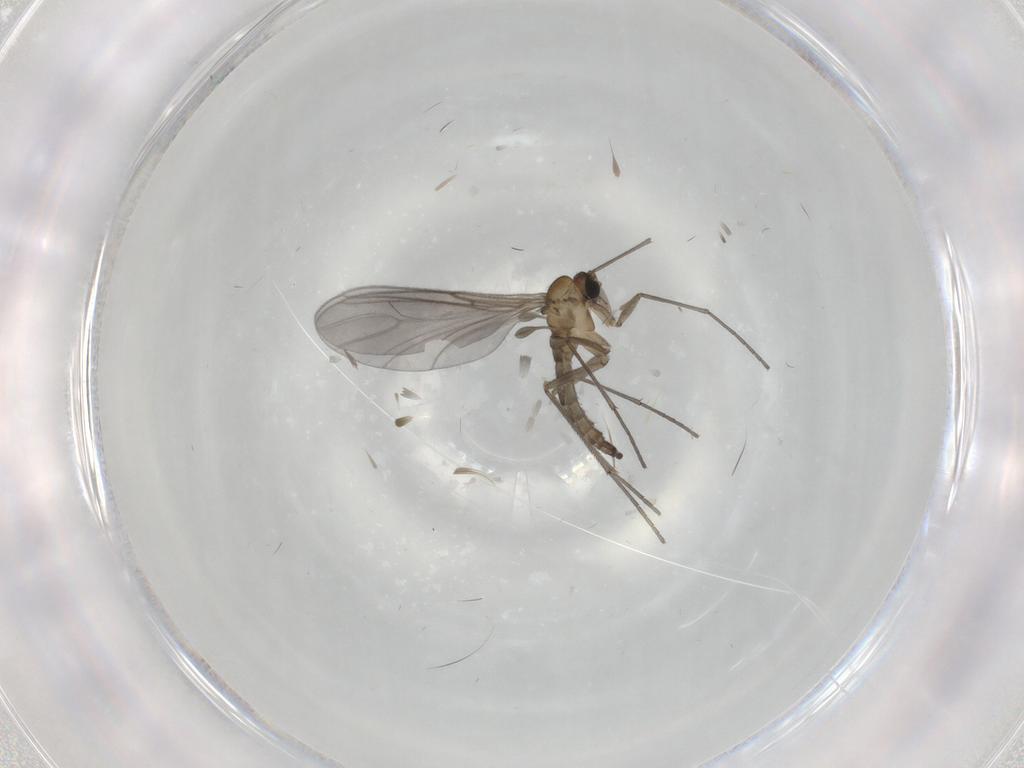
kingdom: Animalia
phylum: Arthropoda
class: Insecta
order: Diptera
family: Sciaridae
